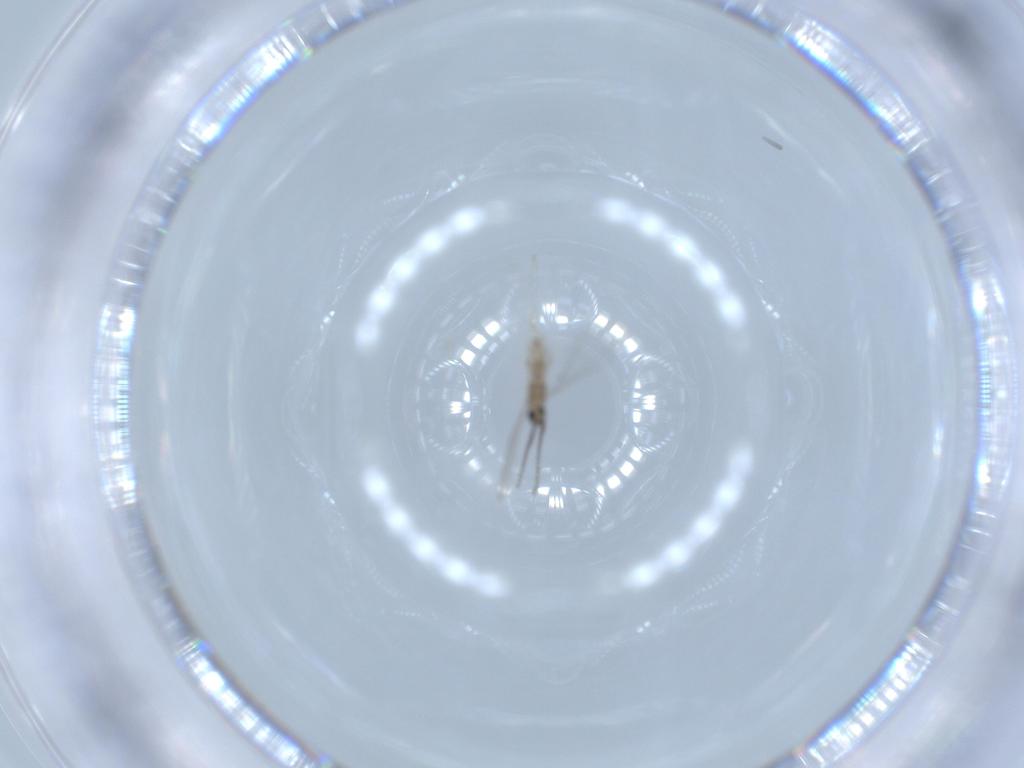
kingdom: Animalia
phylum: Arthropoda
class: Insecta
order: Diptera
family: Cecidomyiidae
